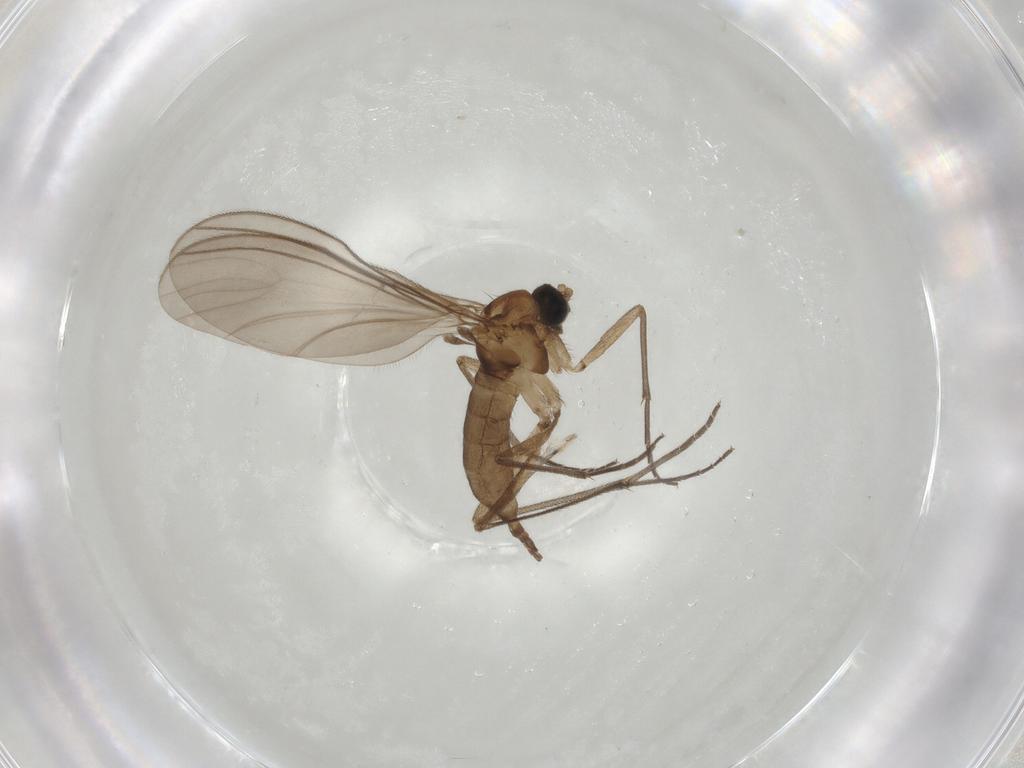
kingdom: Animalia
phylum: Arthropoda
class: Insecta
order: Diptera
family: Sciaridae
